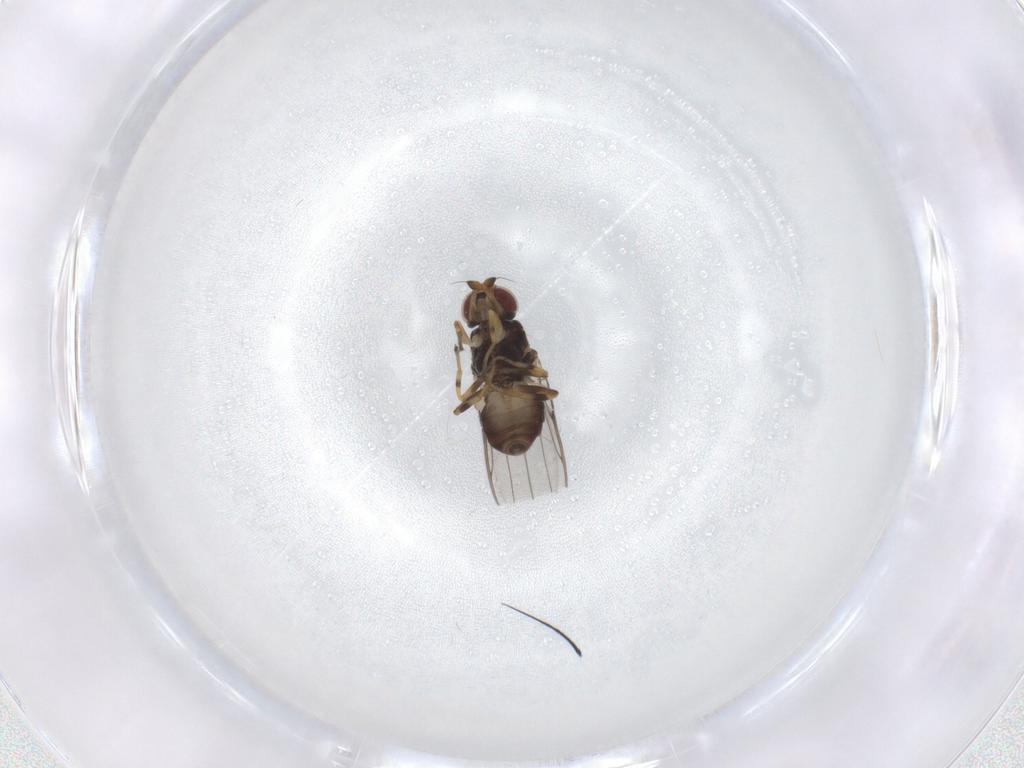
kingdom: Animalia
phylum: Arthropoda
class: Insecta
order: Diptera
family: Chloropidae
